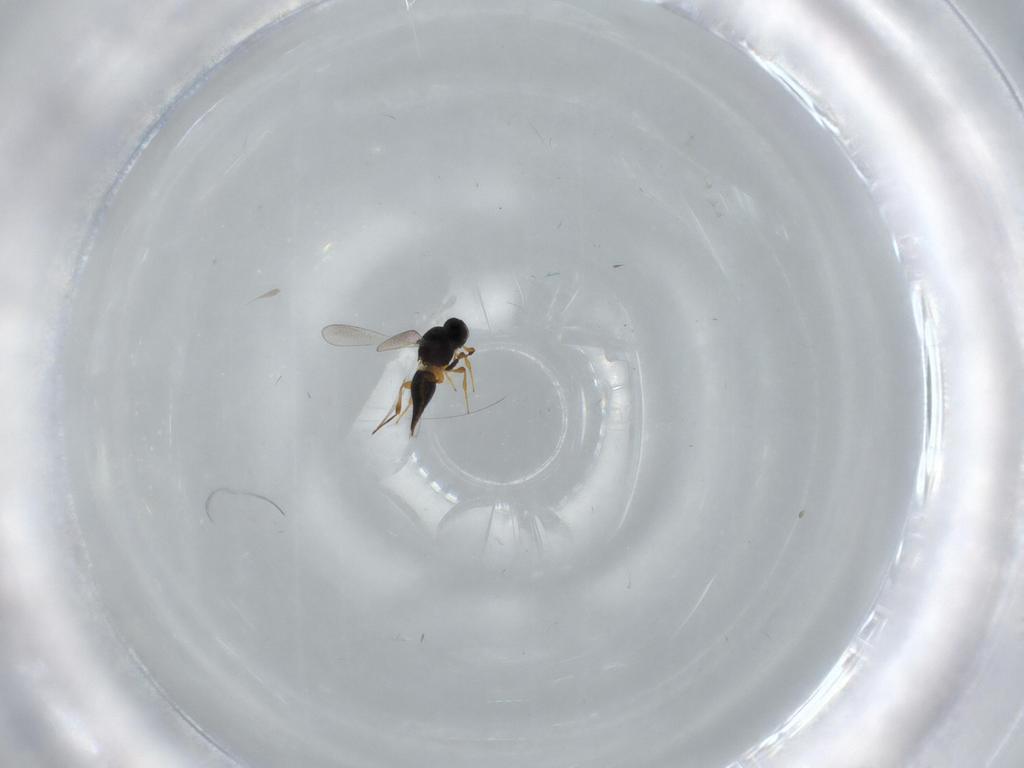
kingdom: Animalia
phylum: Arthropoda
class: Insecta
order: Hymenoptera
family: Platygastridae
